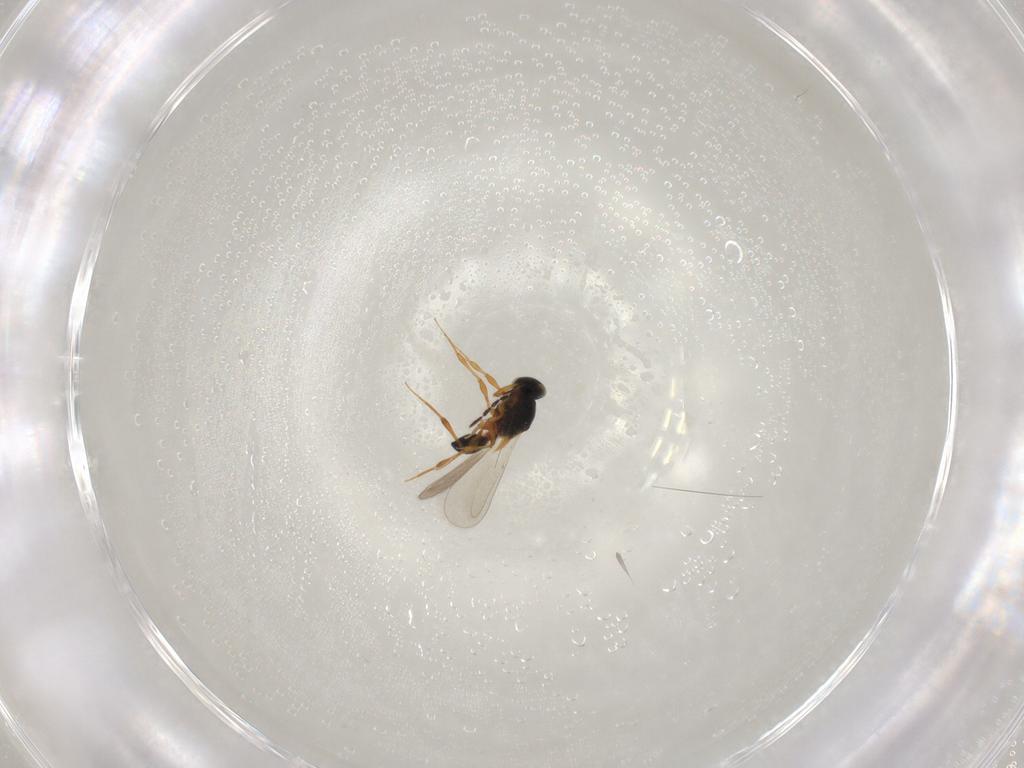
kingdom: Animalia
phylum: Arthropoda
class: Insecta
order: Hymenoptera
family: Platygastridae
